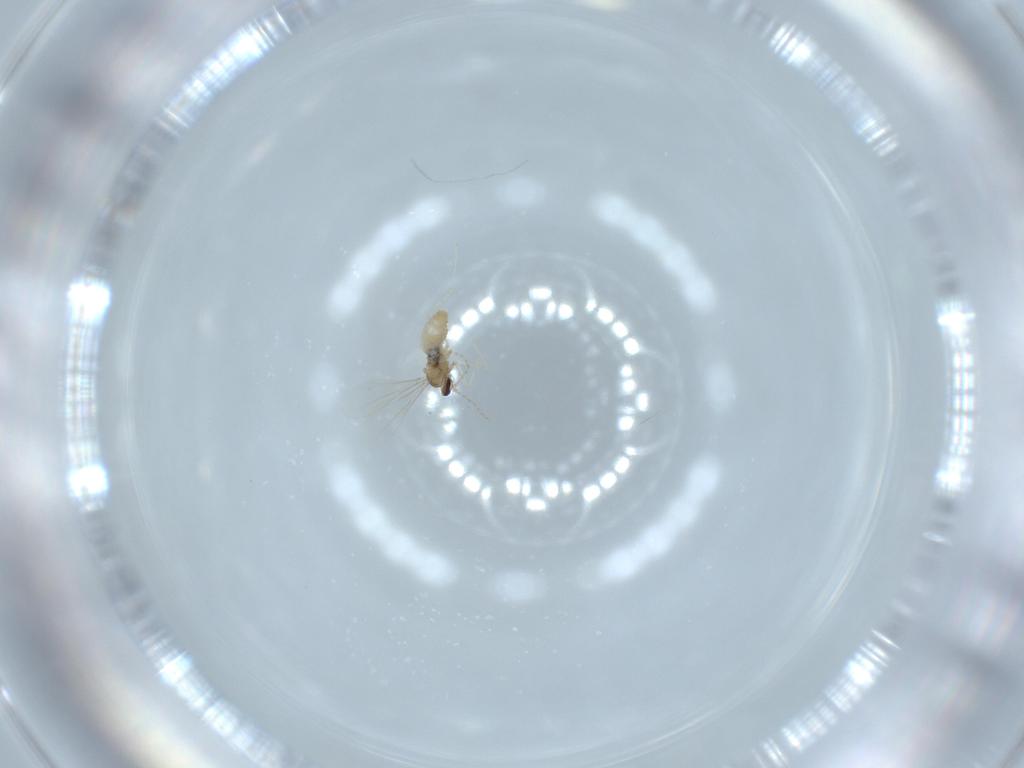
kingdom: Animalia
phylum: Arthropoda
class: Insecta
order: Diptera
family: Cecidomyiidae
